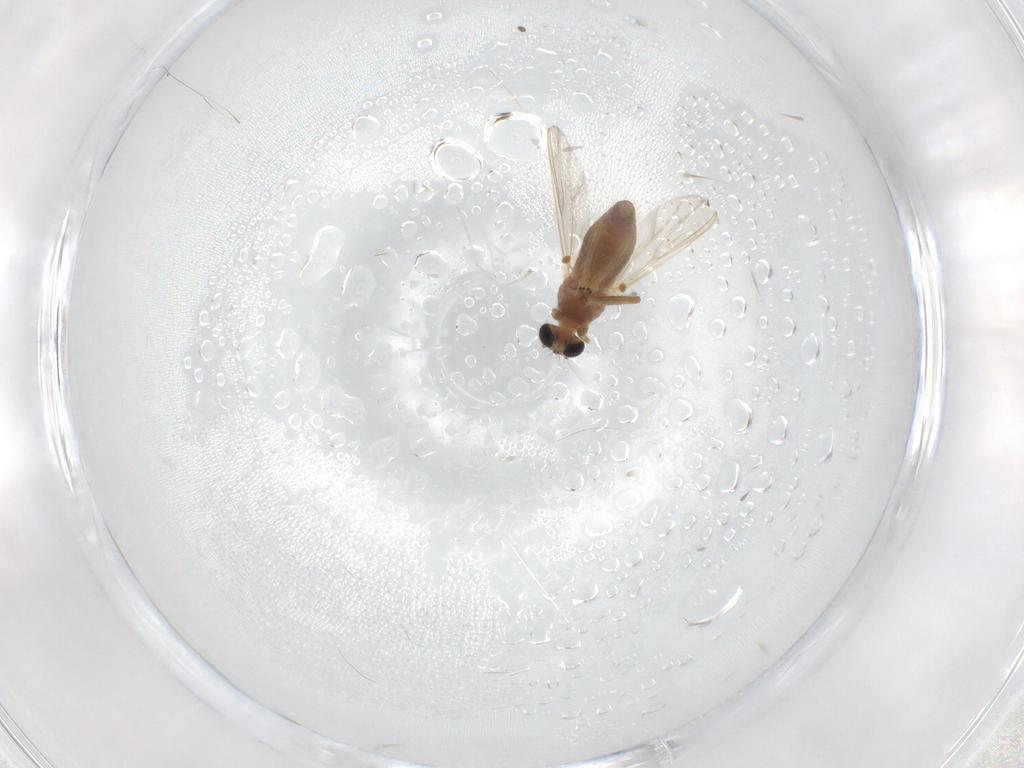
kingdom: Animalia
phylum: Arthropoda
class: Insecta
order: Diptera
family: Chironomidae
